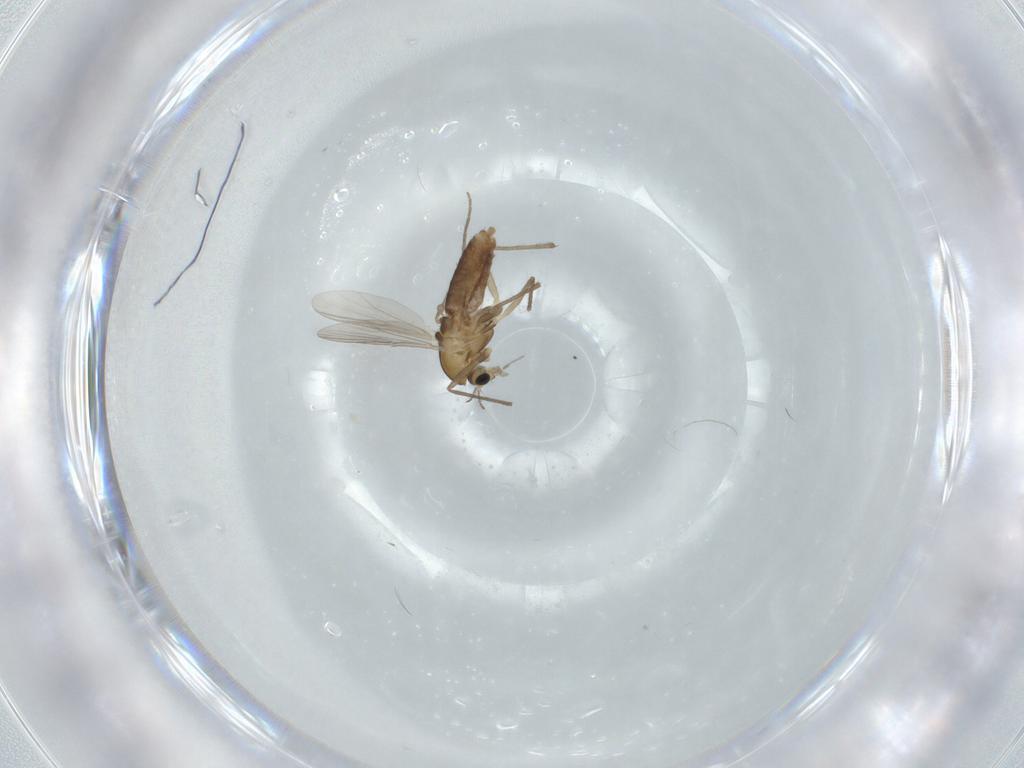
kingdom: Animalia
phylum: Arthropoda
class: Insecta
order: Diptera
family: Chironomidae
